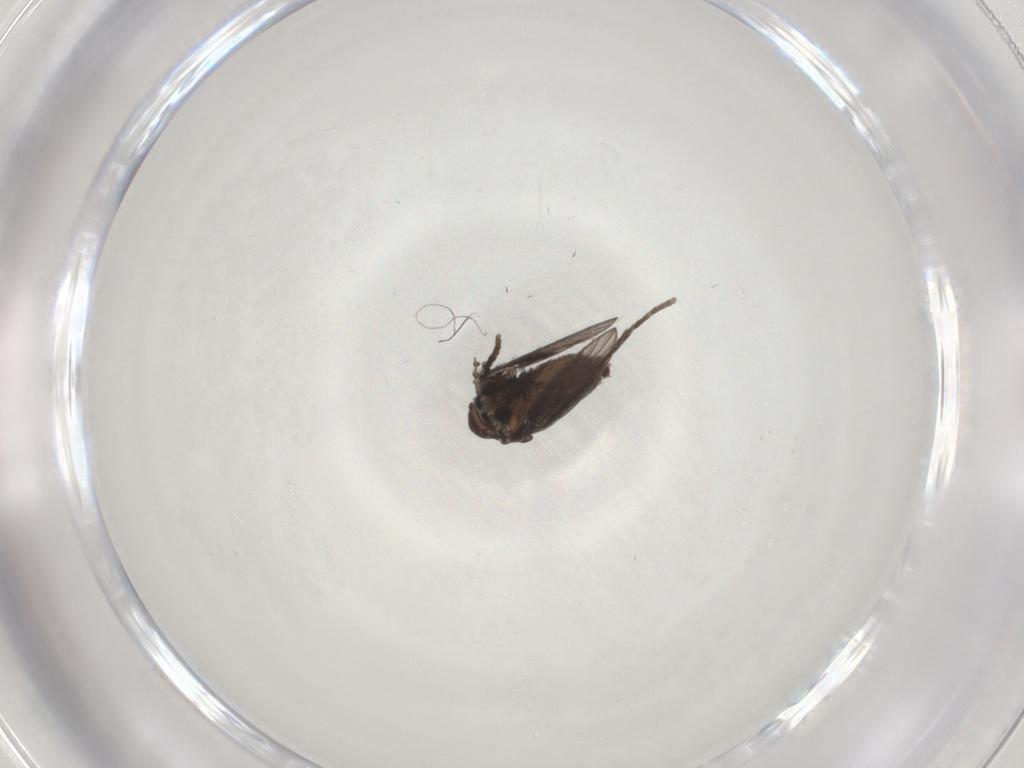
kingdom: Animalia
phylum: Arthropoda
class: Insecta
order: Diptera
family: Psychodidae
